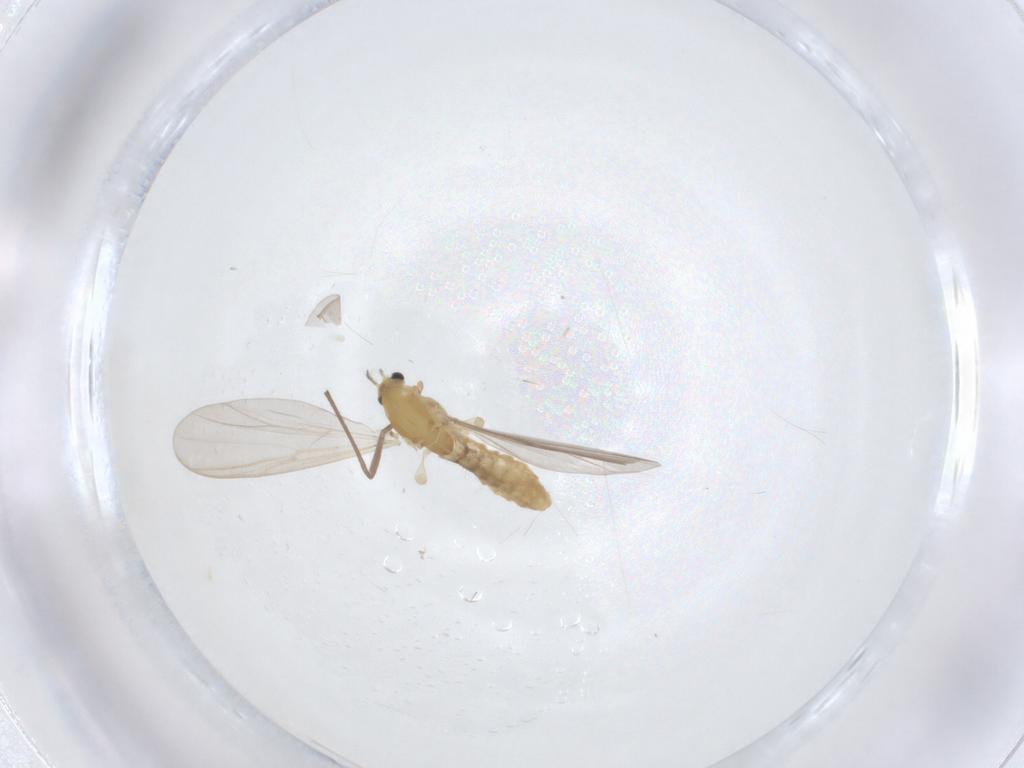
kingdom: Animalia
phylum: Arthropoda
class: Insecta
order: Diptera
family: Chironomidae
